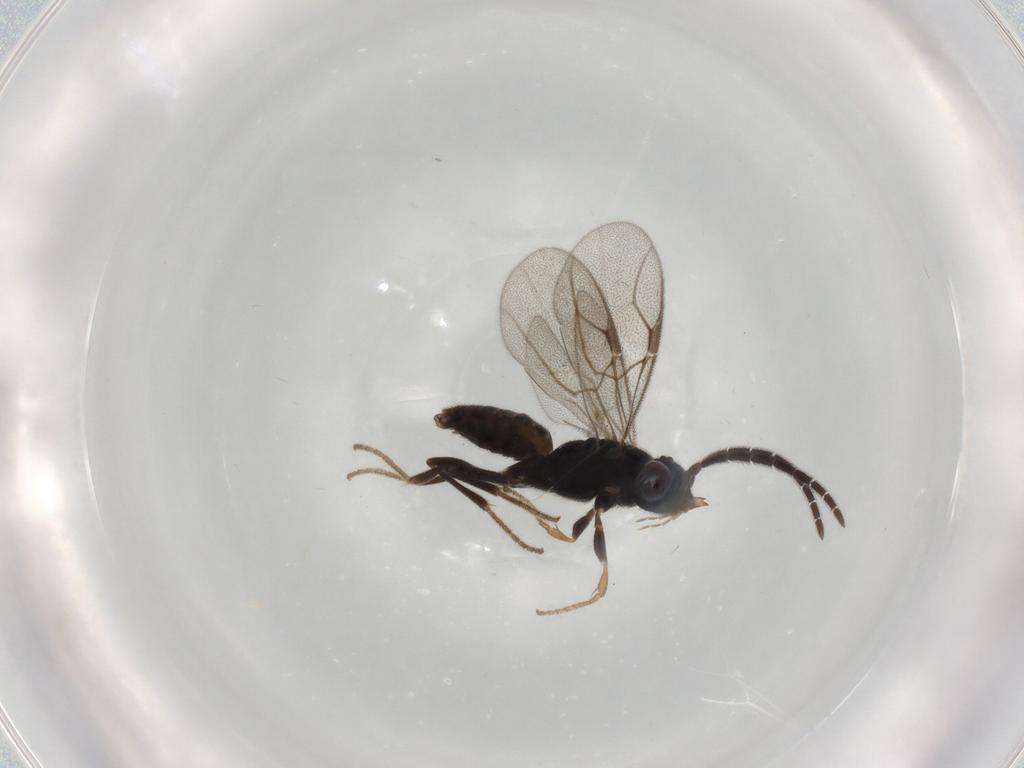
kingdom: Animalia
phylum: Arthropoda
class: Insecta
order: Hymenoptera
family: Dryinidae
